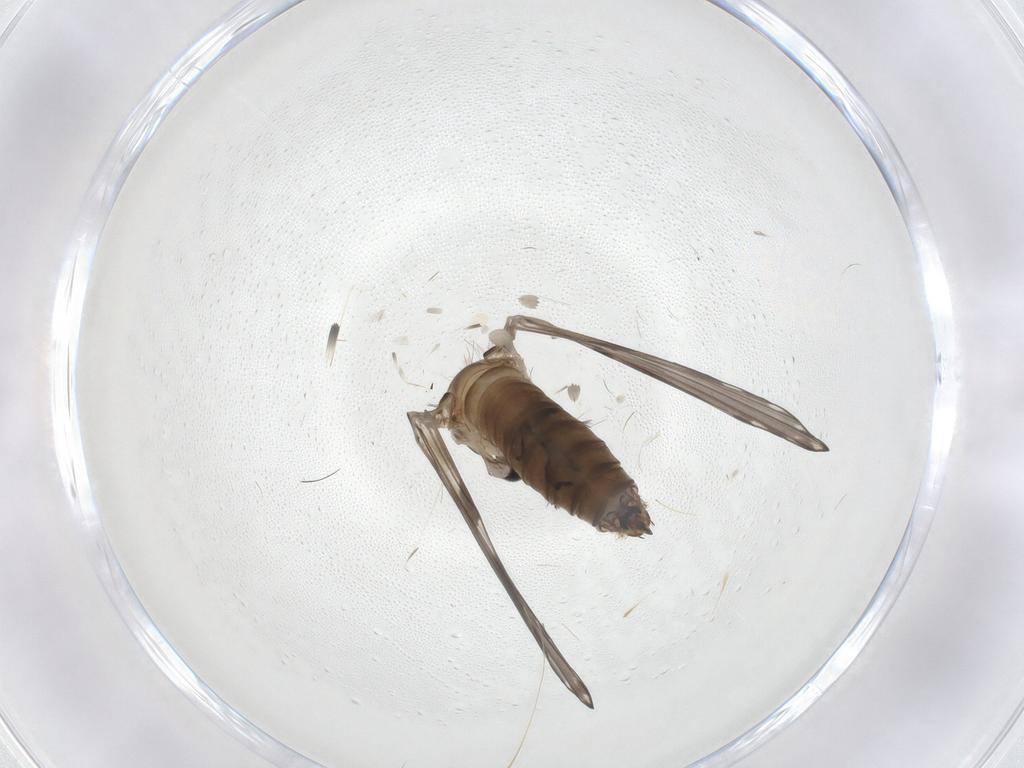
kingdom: Animalia
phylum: Arthropoda
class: Insecta
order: Diptera
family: Psychodidae
